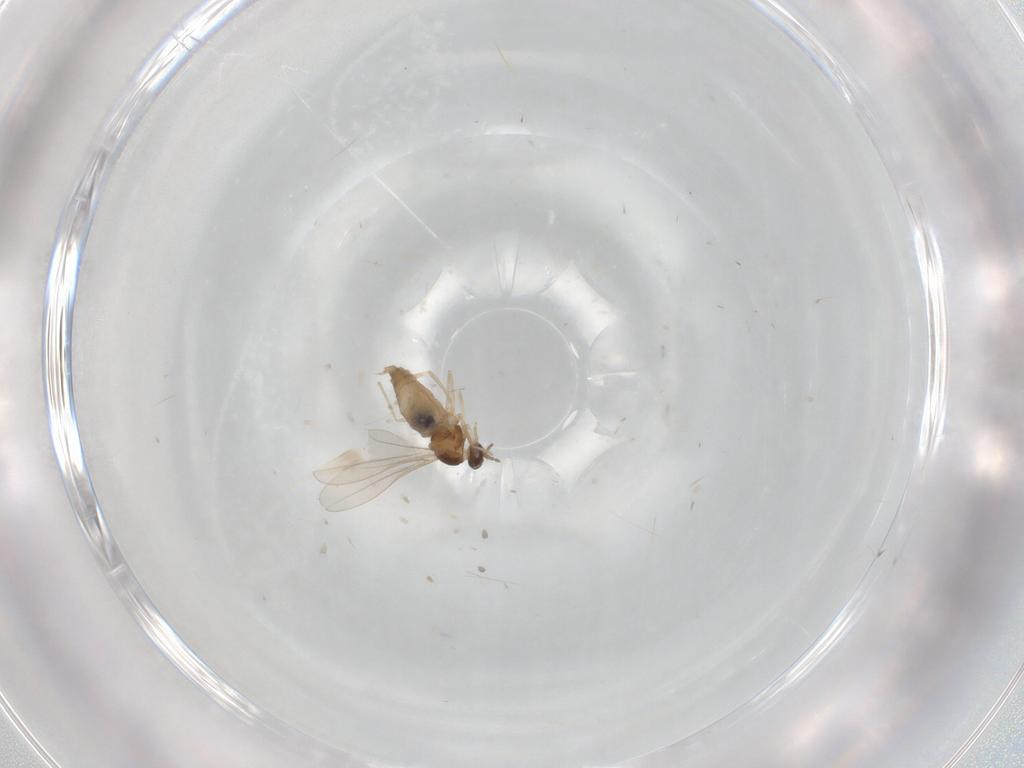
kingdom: Animalia
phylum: Arthropoda
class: Insecta
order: Diptera
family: Cecidomyiidae
